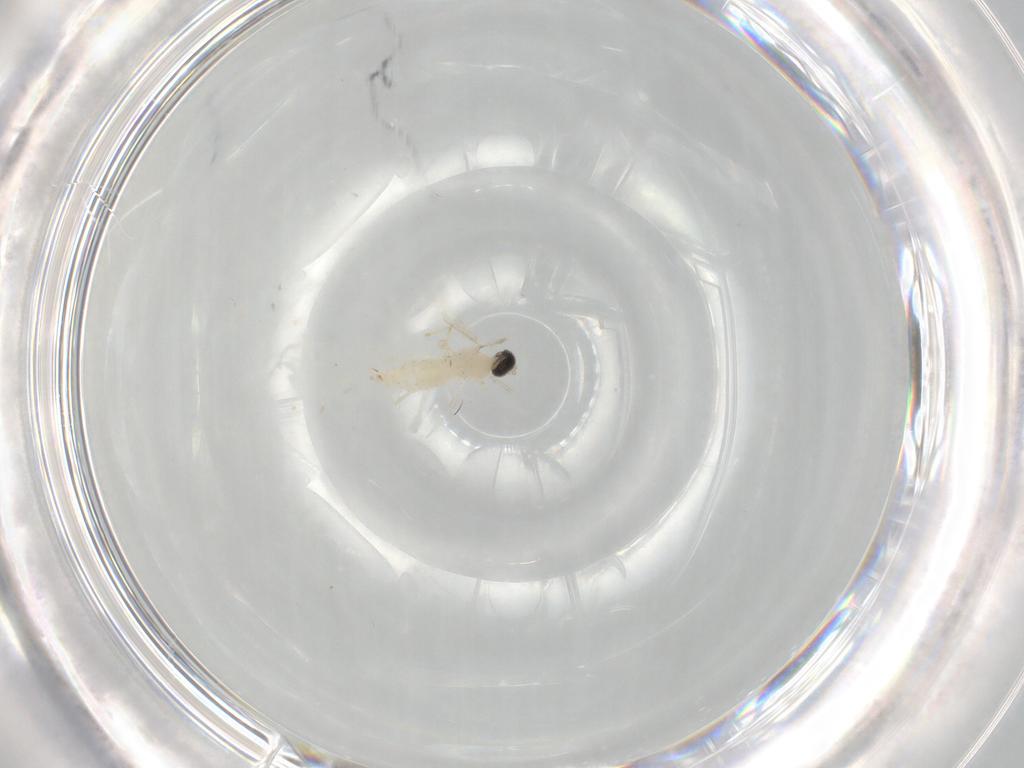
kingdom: Animalia
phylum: Arthropoda
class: Insecta
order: Diptera
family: Cecidomyiidae
